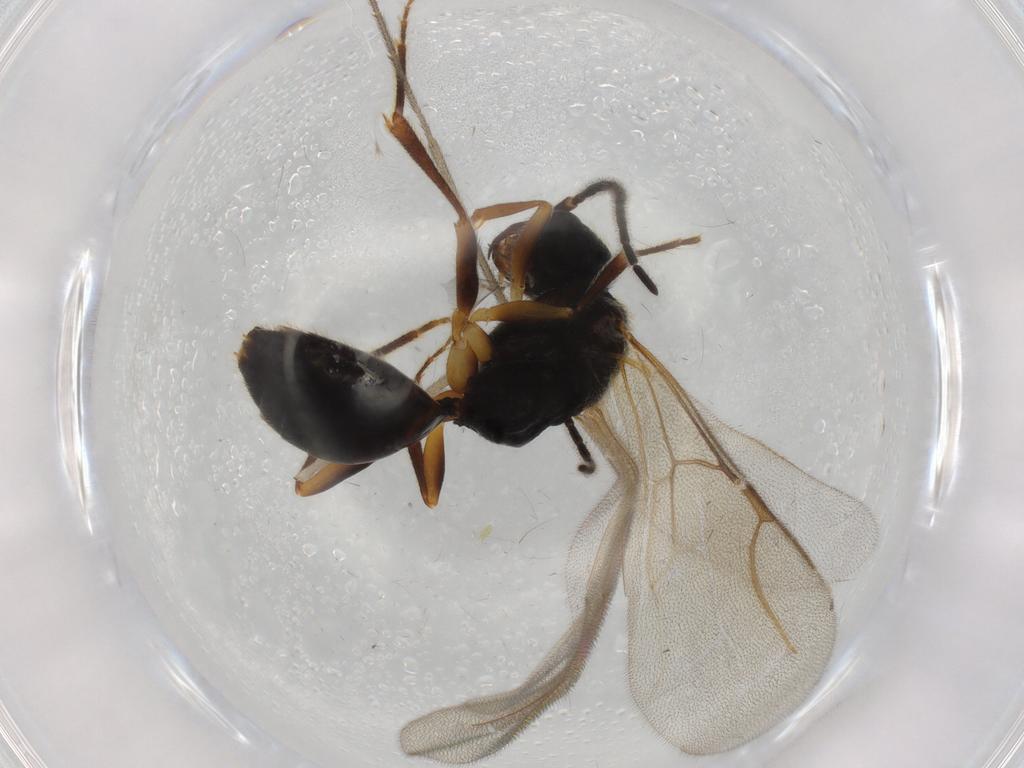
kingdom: Animalia
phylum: Arthropoda
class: Insecta
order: Hymenoptera
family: Bethylidae
